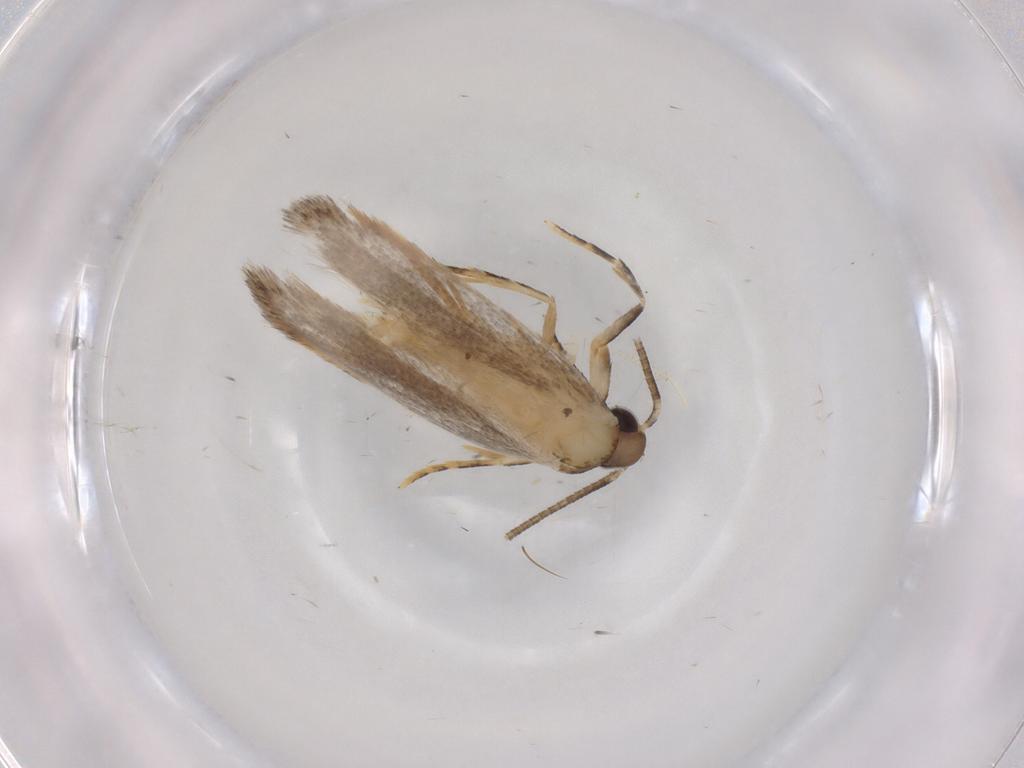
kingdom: Animalia
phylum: Arthropoda
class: Insecta
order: Lepidoptera
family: Autostichidae
